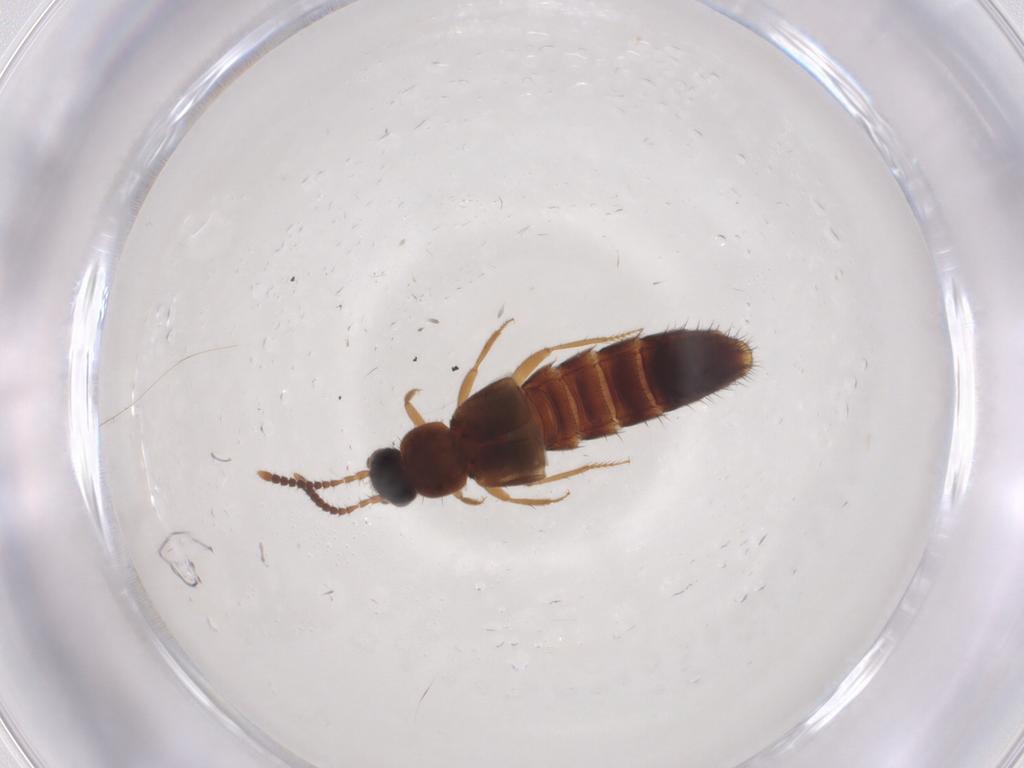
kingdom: Animalia
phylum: Arthropoda
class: Insecta
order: Coleoptera
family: Staphylinidae
